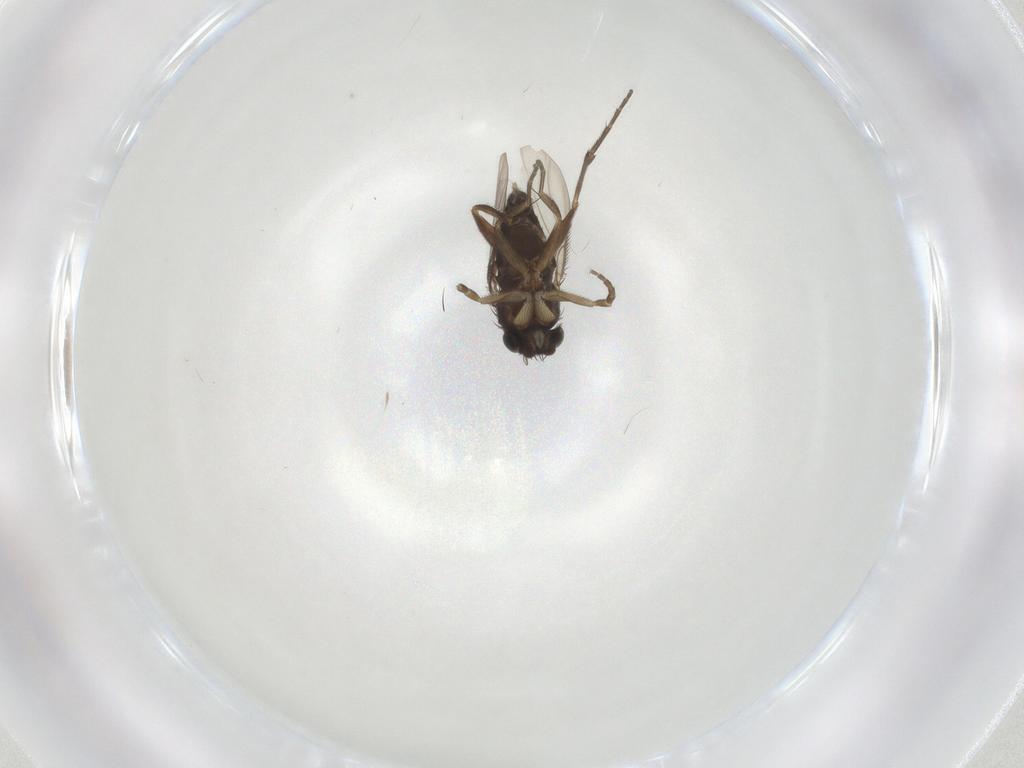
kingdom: Animalia
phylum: Arthropoda
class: Insecta
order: Diptera
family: Phoridae
